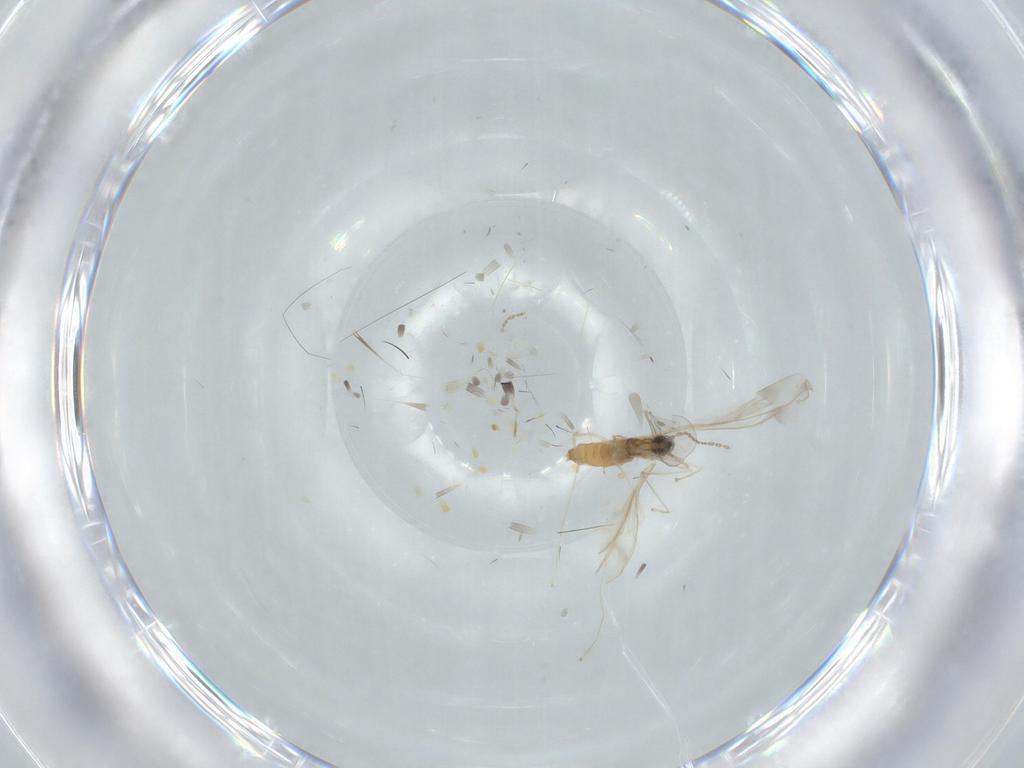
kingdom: Animalia
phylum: Arthropoda
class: Insecta
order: Diptera
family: Cecidomyiidae
